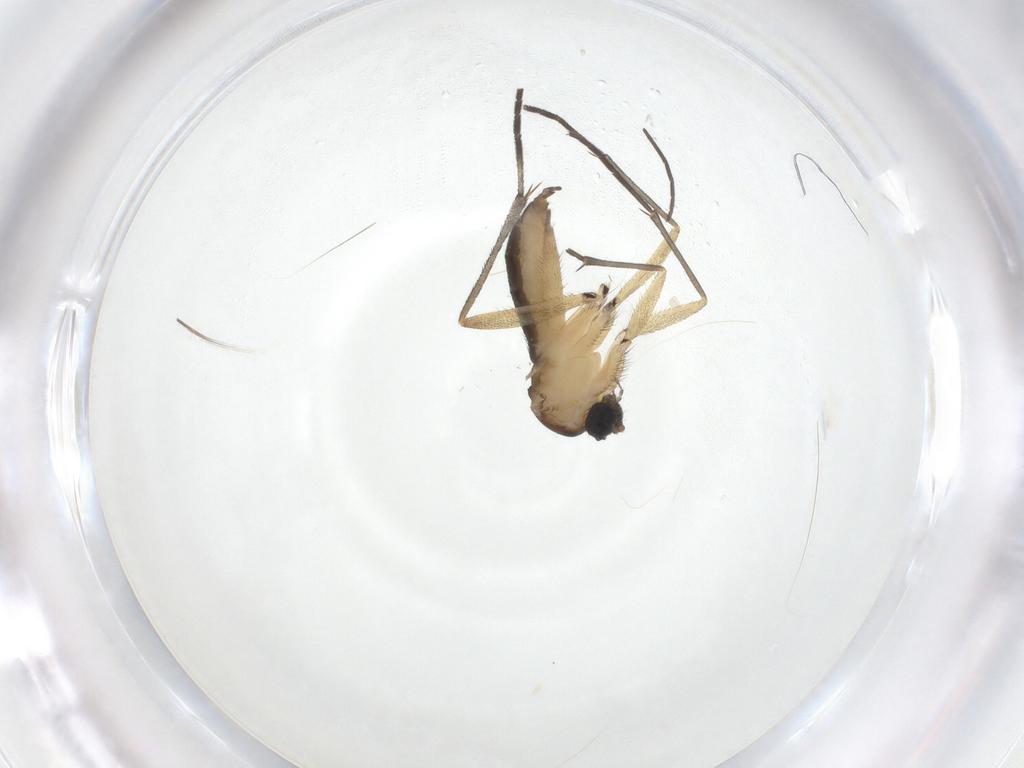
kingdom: Animalia
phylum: Arthropoda
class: Insecta
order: Diptera
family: Sciaridae
